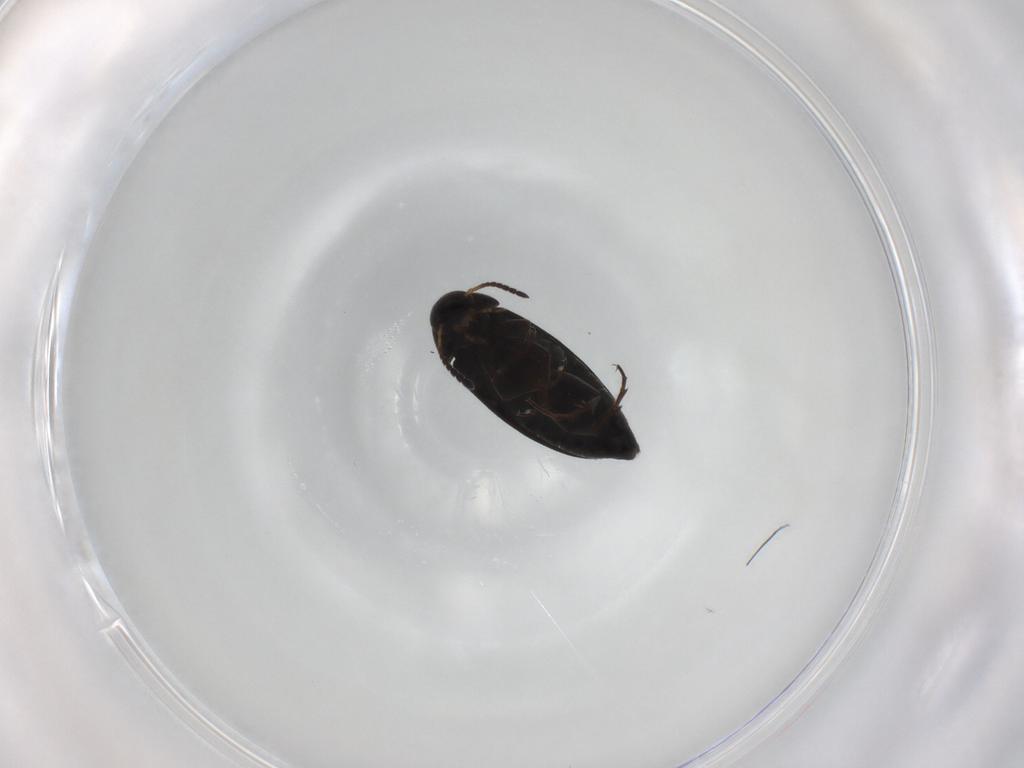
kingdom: Animalia
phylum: Arthropoda
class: Insecta
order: Coleoptera
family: Scraptiidae
